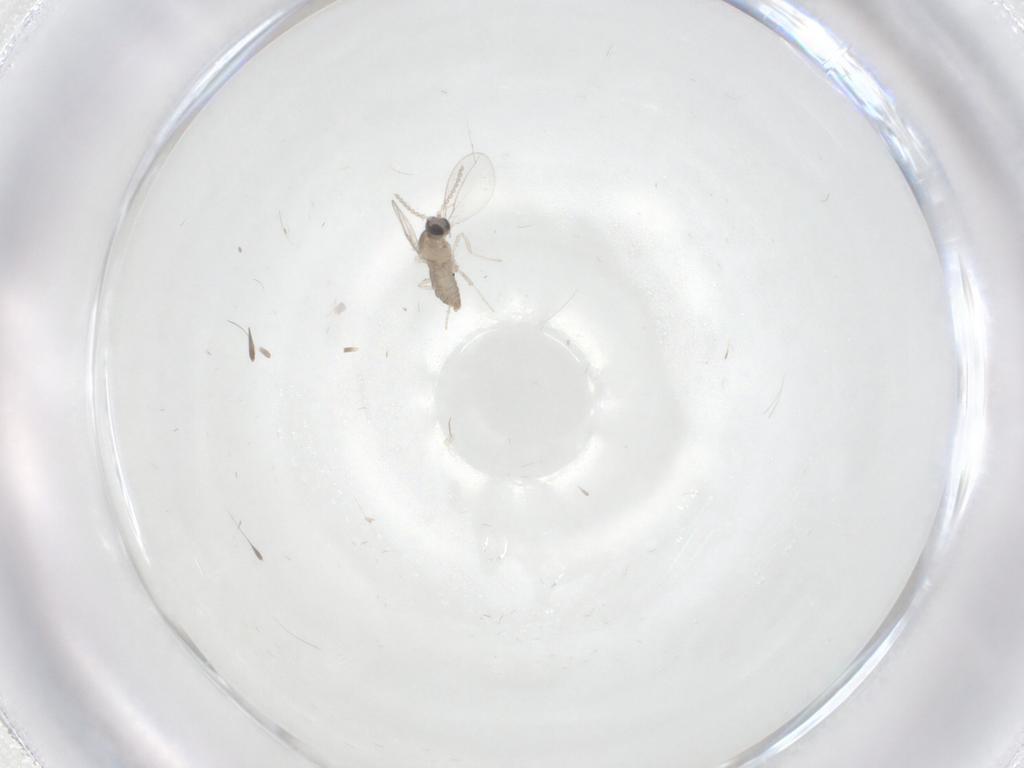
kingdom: Animalia
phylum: Arthropoda
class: Insecta
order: Diptera
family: Cecidomyiidae
